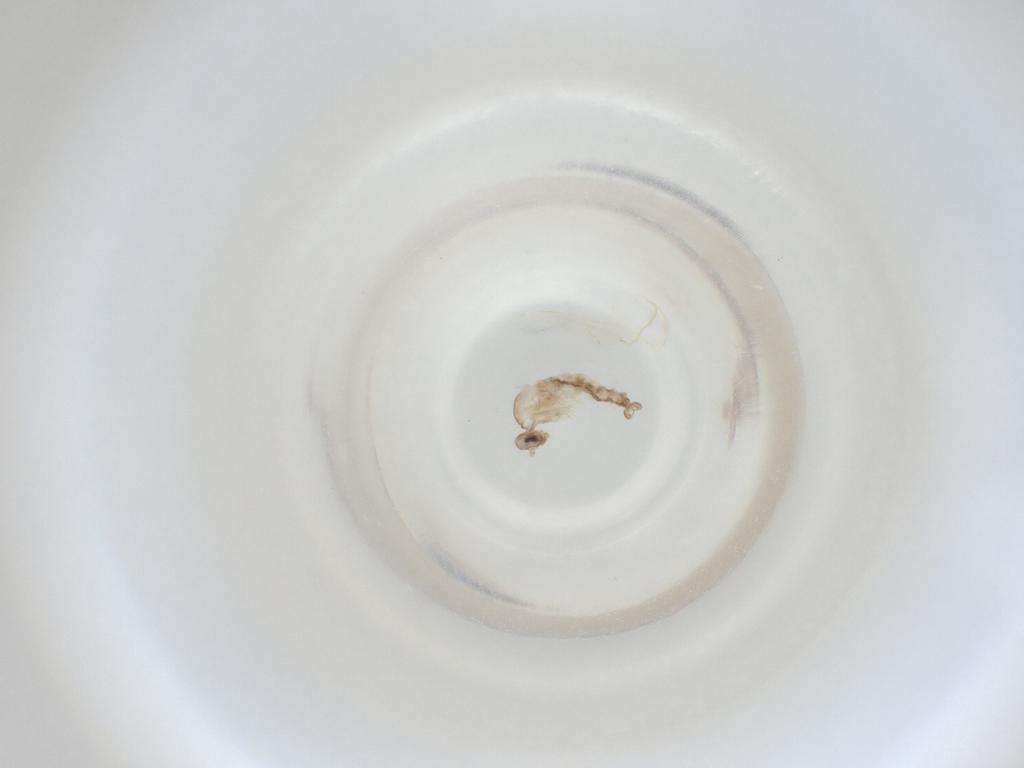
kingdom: Animalia
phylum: Arthropoda
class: Insecta
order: Diptera
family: Cecidomyiidae
